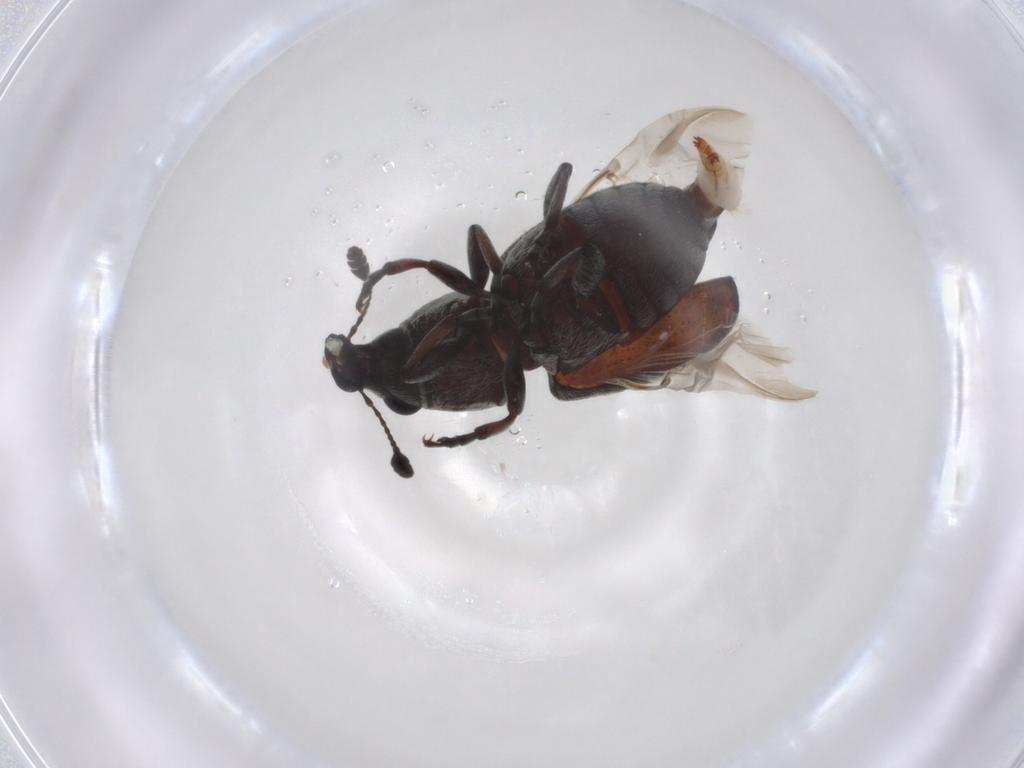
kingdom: Animalia
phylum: Arthropoda
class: Insecta
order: Coleoptera
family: Anthribidae
